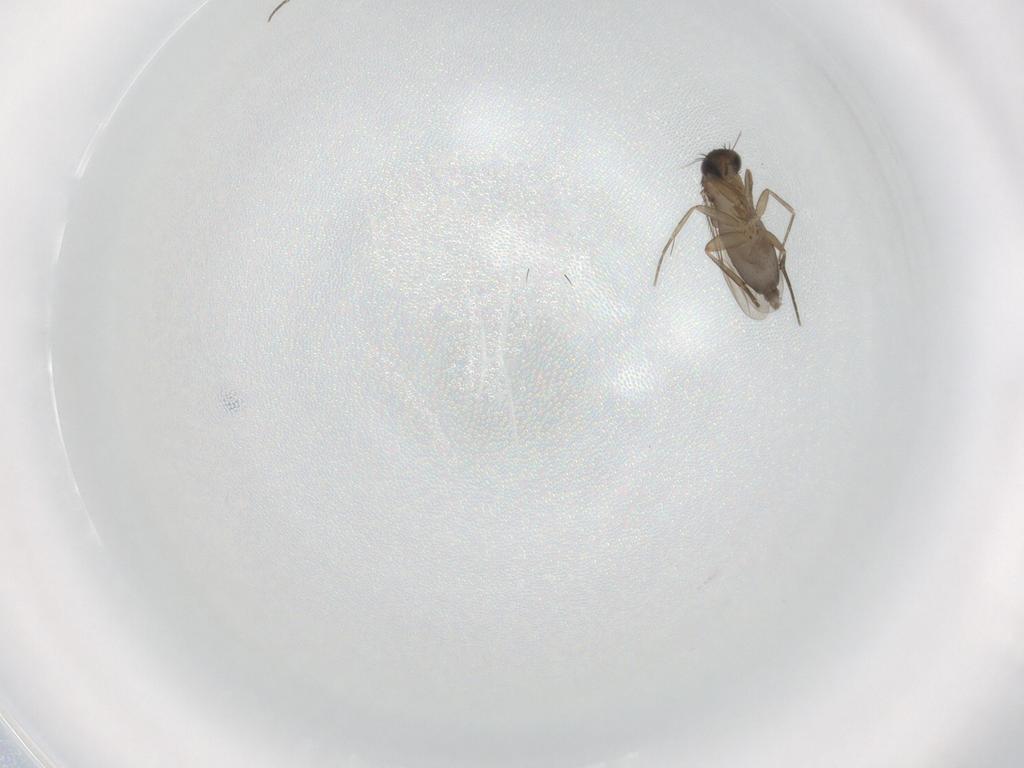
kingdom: Animalia
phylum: Arthropoda
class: Insecta
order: Diptera
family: Phoridae
